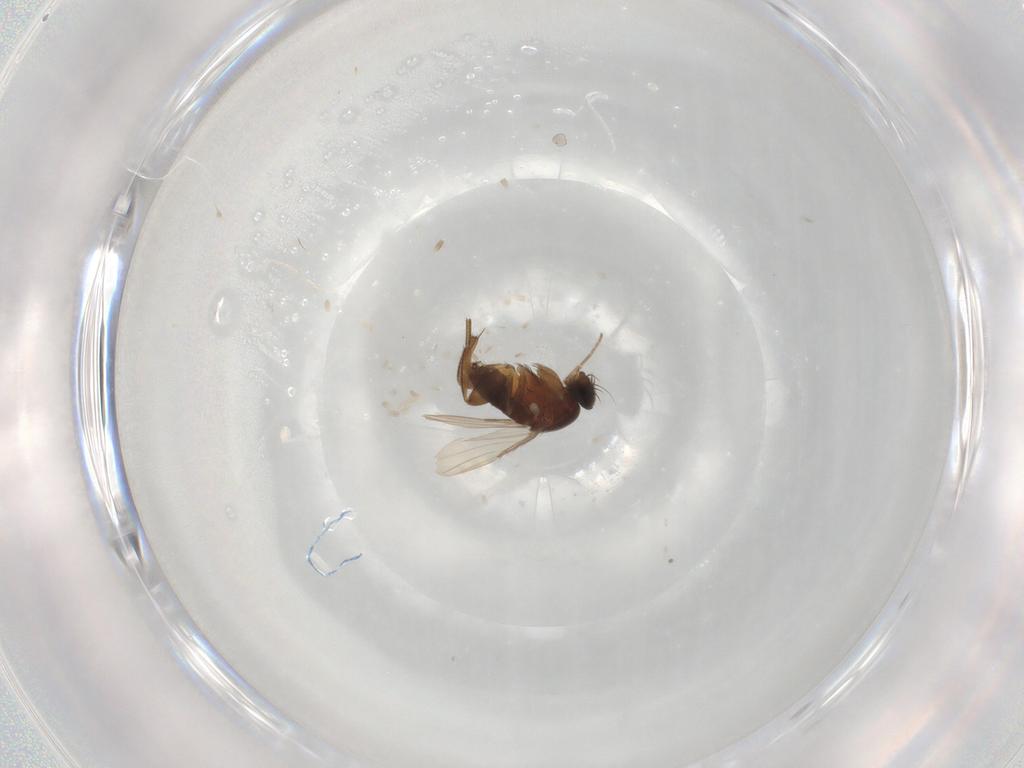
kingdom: Animalia
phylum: Arthropoda
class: Insecta
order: Diptera
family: Phoridae
